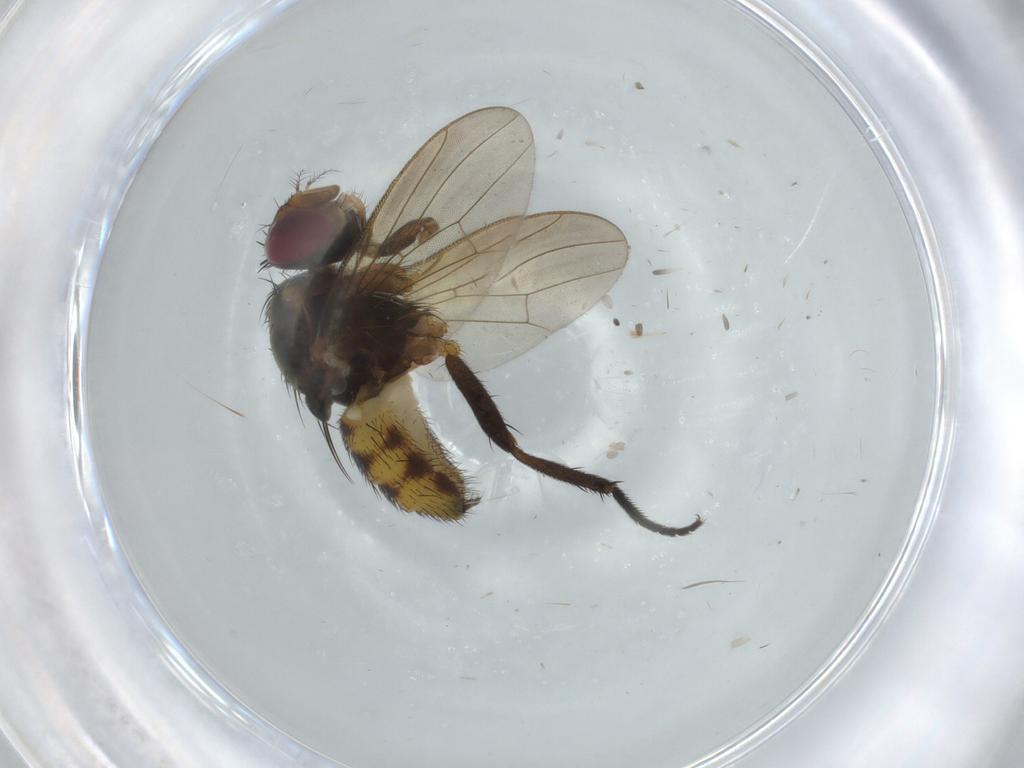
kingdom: Animalia
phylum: Arthropoda
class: Insecta
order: Diptera
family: Anthomyiidae
